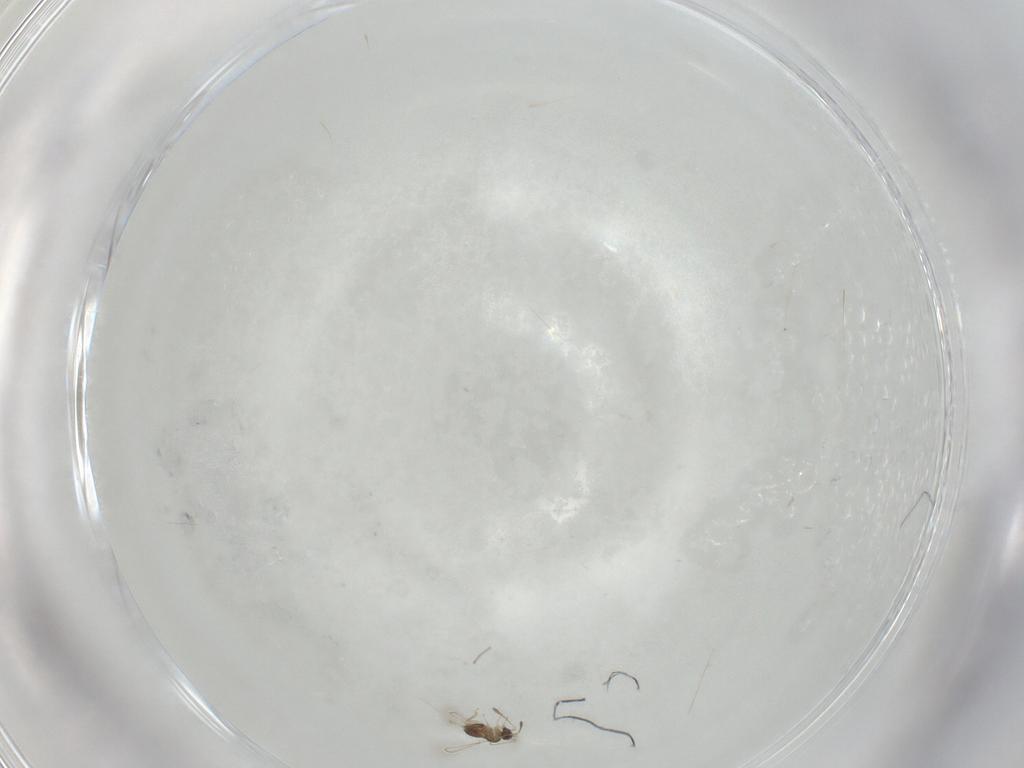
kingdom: Animalia
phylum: Arthropoda
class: Insecta
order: Hymenoptera
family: Trichogrammatidae
